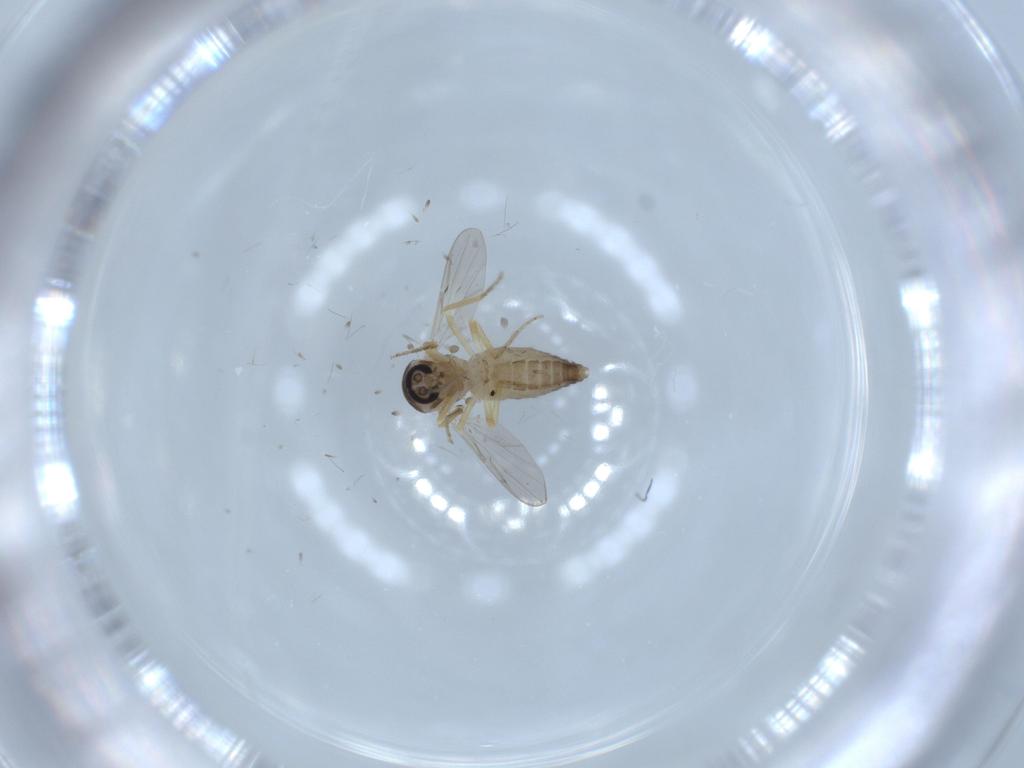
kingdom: Animalia
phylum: Arthropoda
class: Insecta
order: Diptera
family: Ceratopogonidae
